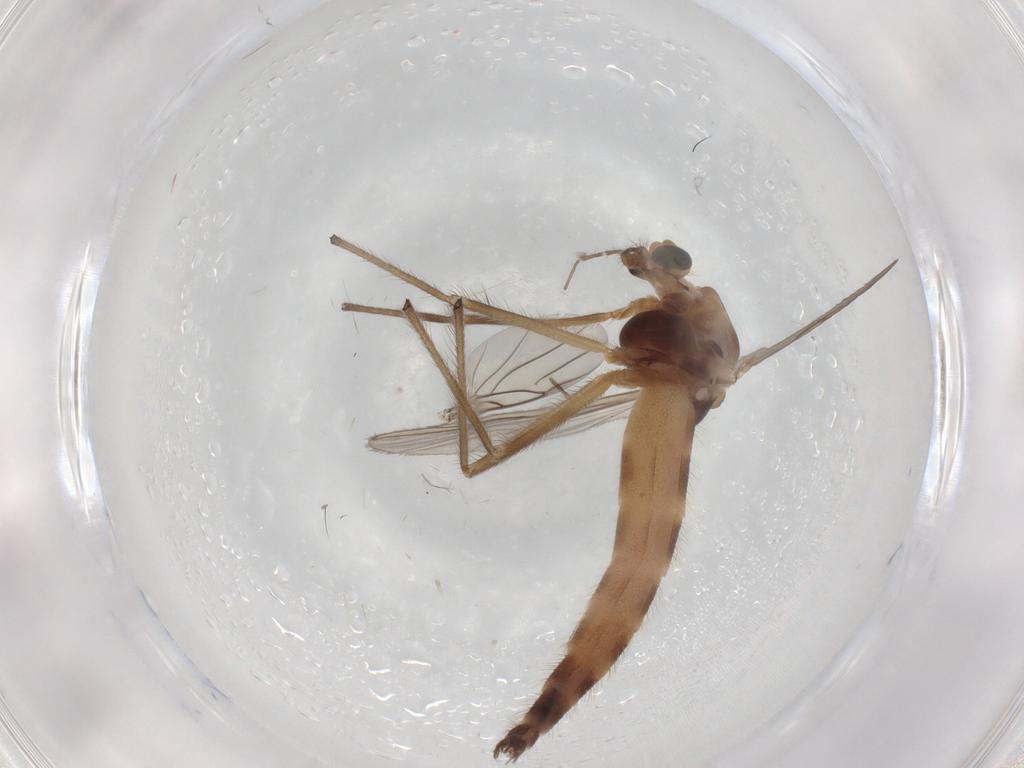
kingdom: Animalia
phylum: Arthropoda
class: Insecta
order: Diptera
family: Chironomidae
